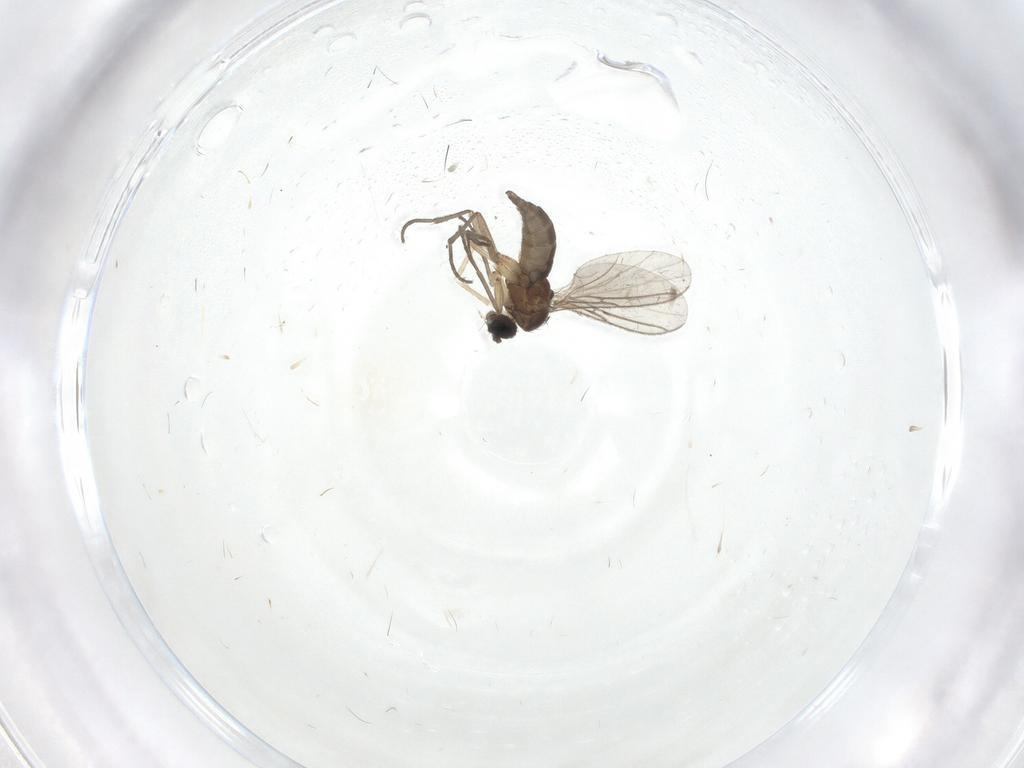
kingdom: Animalia
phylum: Arthropoda
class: Insecta
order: Diptera
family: Sciaridae
